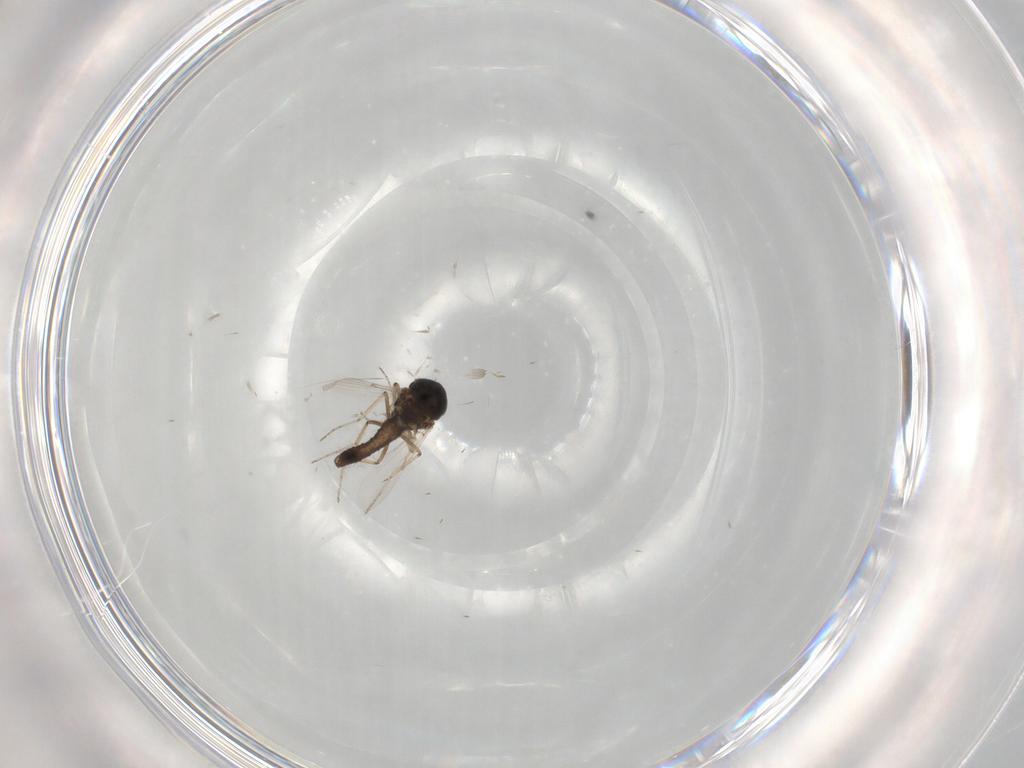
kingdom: Animalia
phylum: Arthropoda
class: Insecta
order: Diptera
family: Ceratopogonidae
